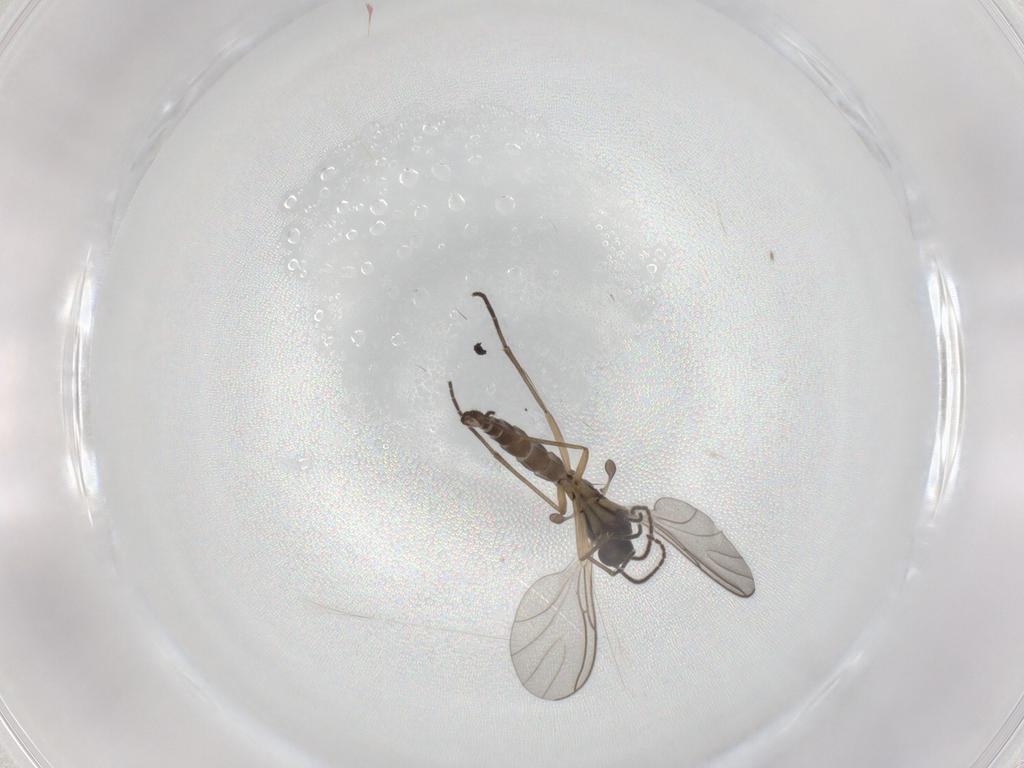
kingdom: Animalia
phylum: Arthropoda
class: Insecta
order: Diptera
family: Sciaridae
